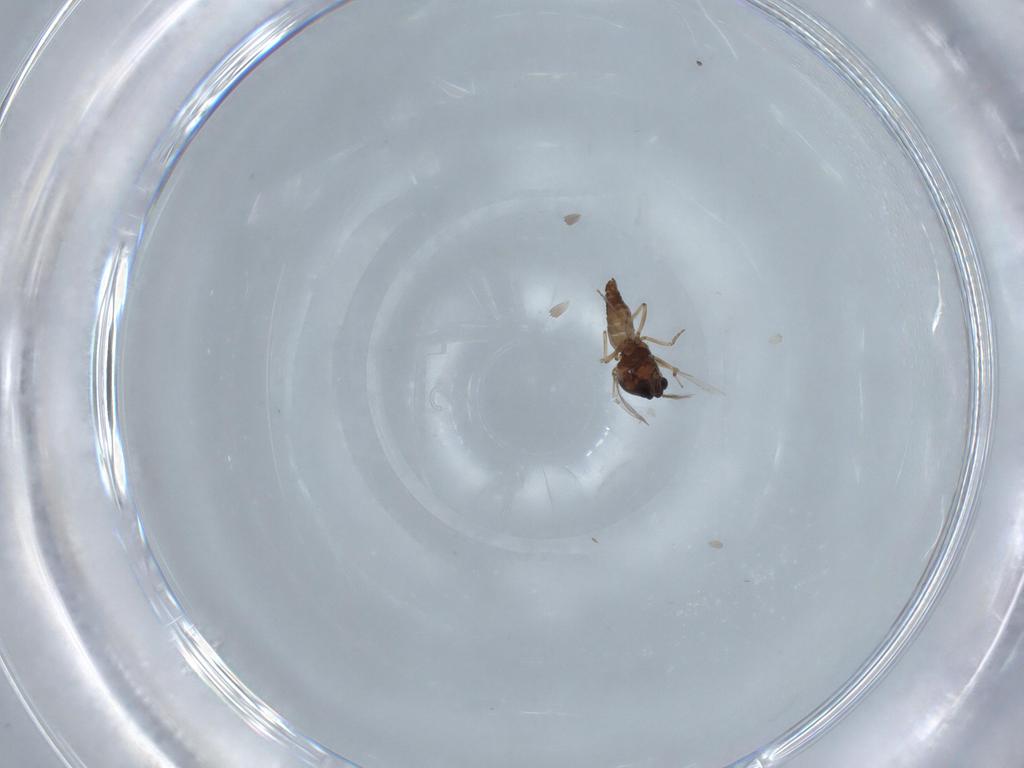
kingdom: Animalia
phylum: Arthropoda
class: Insecta
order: Diptera
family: Ceratopogonidae
